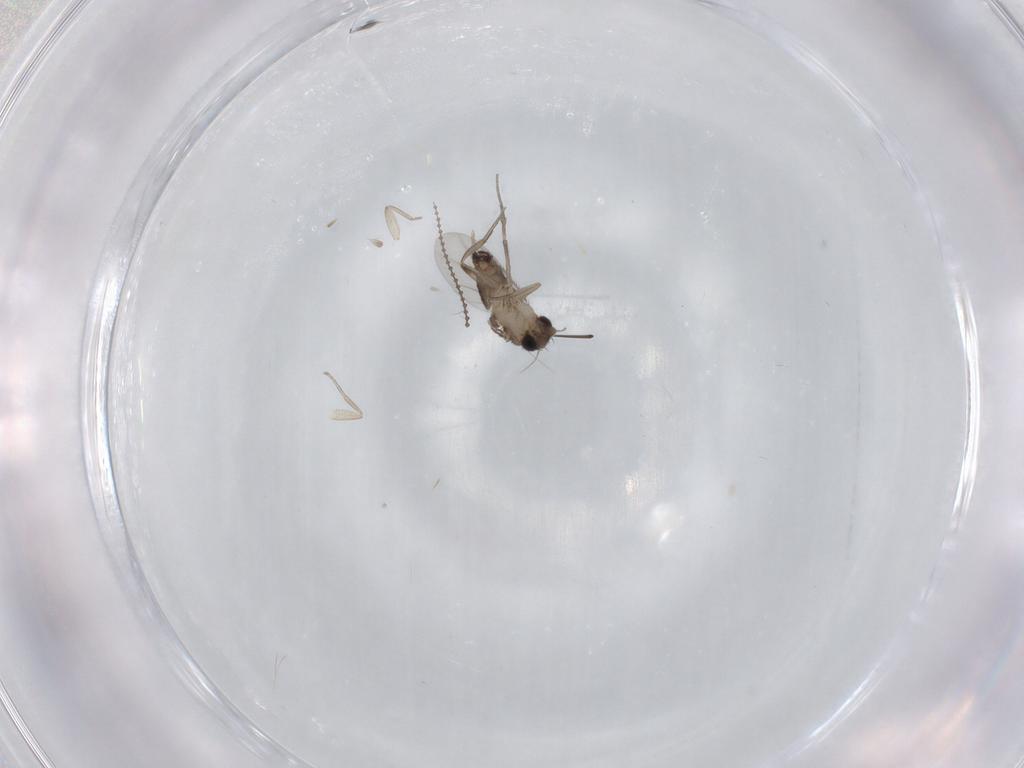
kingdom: Animalia
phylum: Arthropoda
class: Insecta
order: Diptera
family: Phoridae
